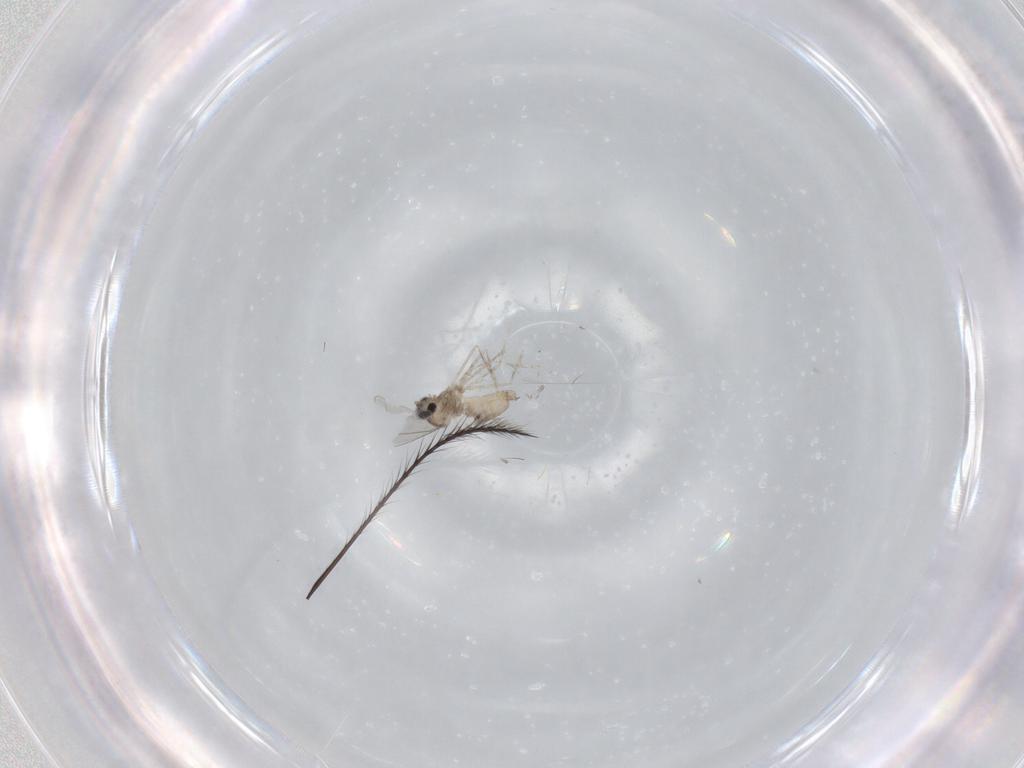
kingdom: Animalia
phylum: Arthropoda
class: Insecta
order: Diptera
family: Cecidomyiidae
